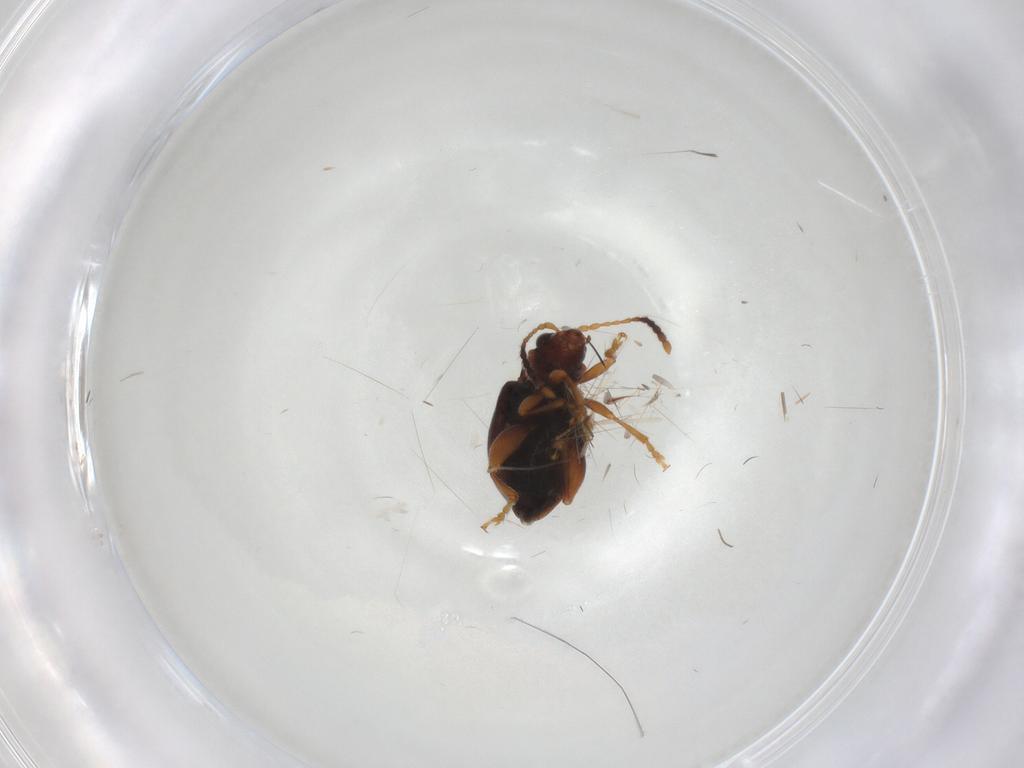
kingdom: Animalia
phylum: Arthropoda
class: Insecta
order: Coleoptera
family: Chrysomelidae
